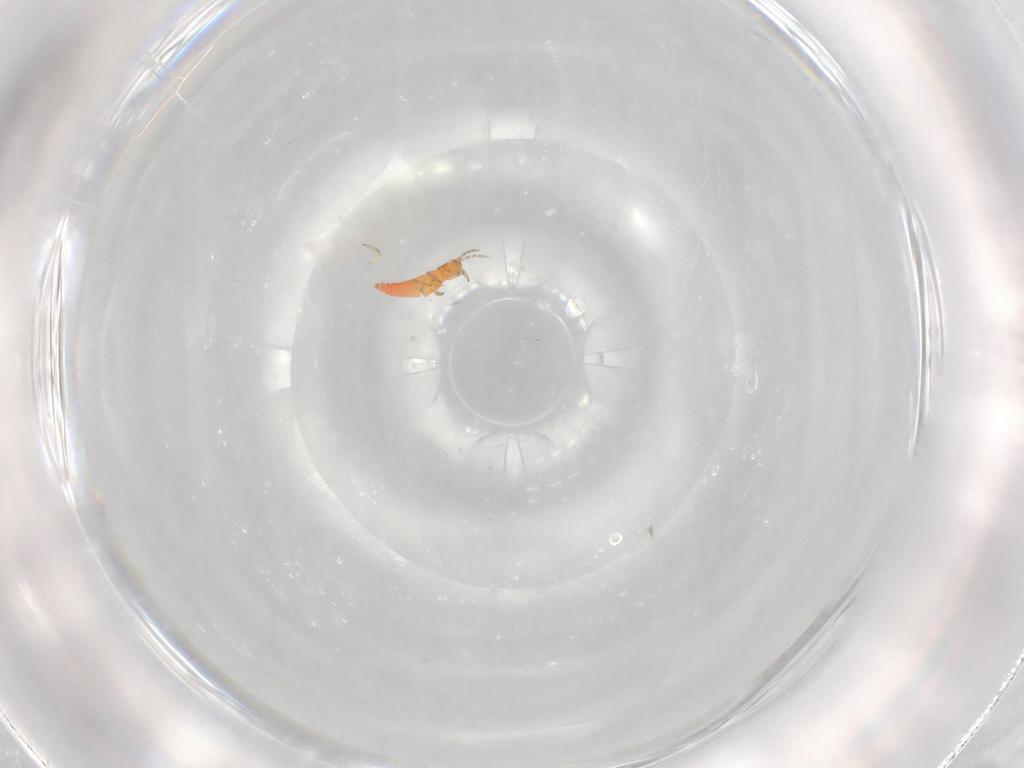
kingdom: Animalia
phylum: Arthropoda
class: Insecta
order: Thysanoptera
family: Aeolothripidae
